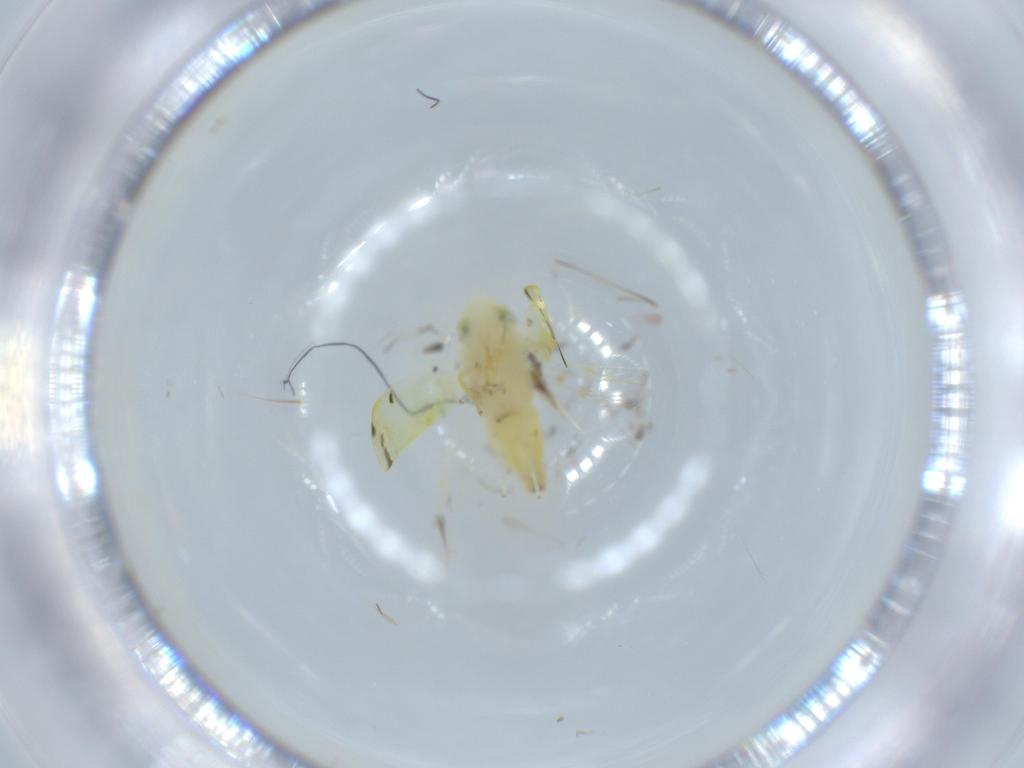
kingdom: Animalia
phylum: Arthropoda
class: Insecta
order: Hemiptera
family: Cicadellidae
